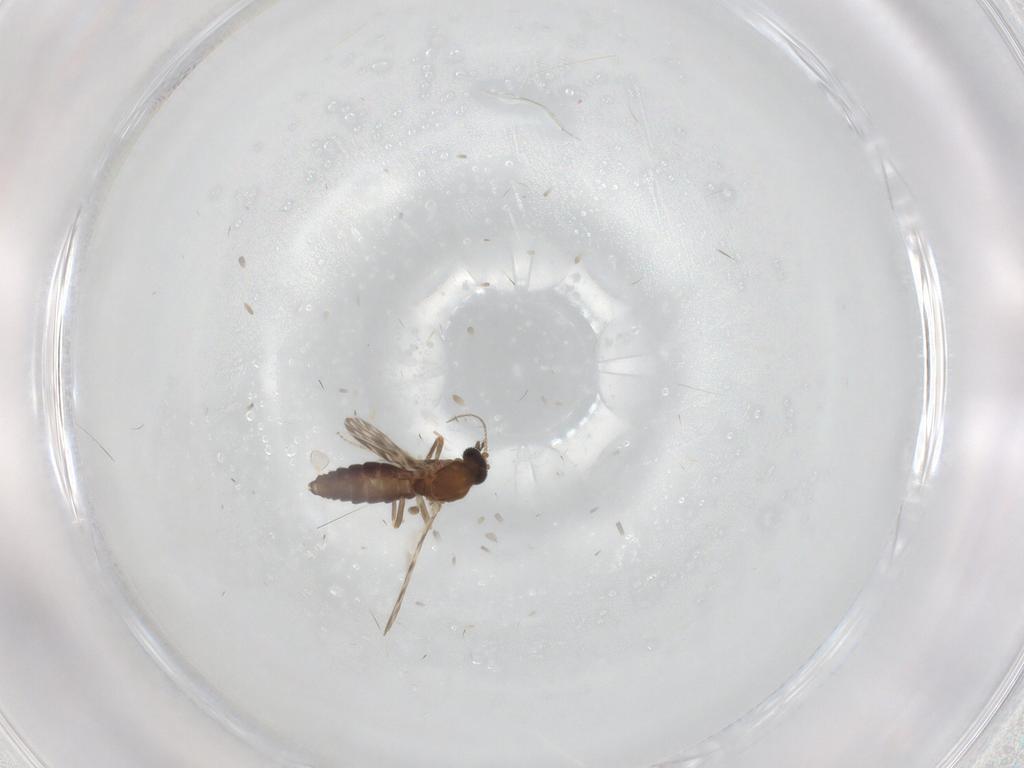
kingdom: Animalia
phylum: Arthropoda
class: Insecta
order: Diptera
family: Ceratopogonidae
